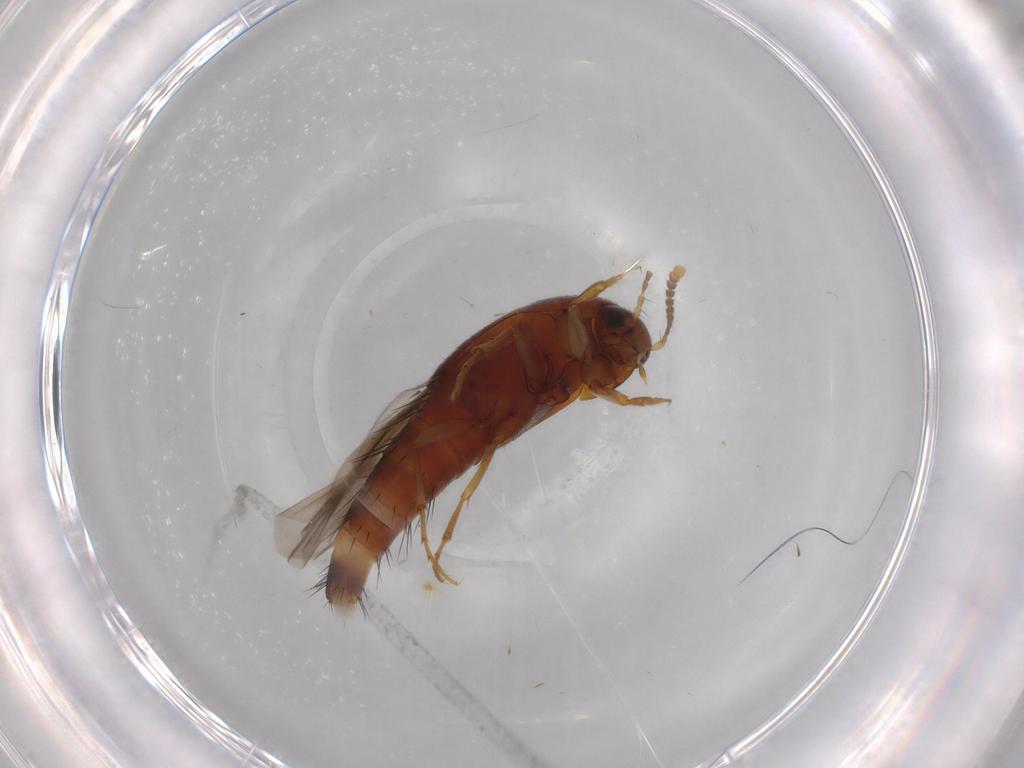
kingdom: Animalia
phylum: Arthropoda
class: Insecta
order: Coleoptera
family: Staphylinidae
